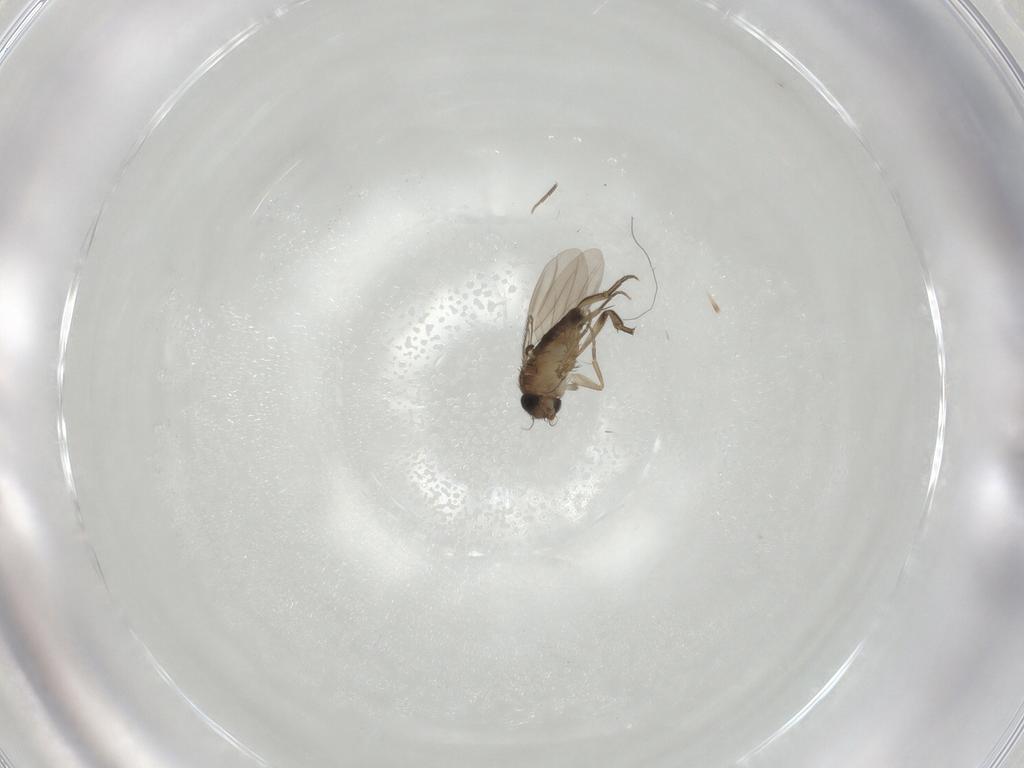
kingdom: Animalia
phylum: Arthropoda
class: Insecta
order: Diptera
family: Phoridae
